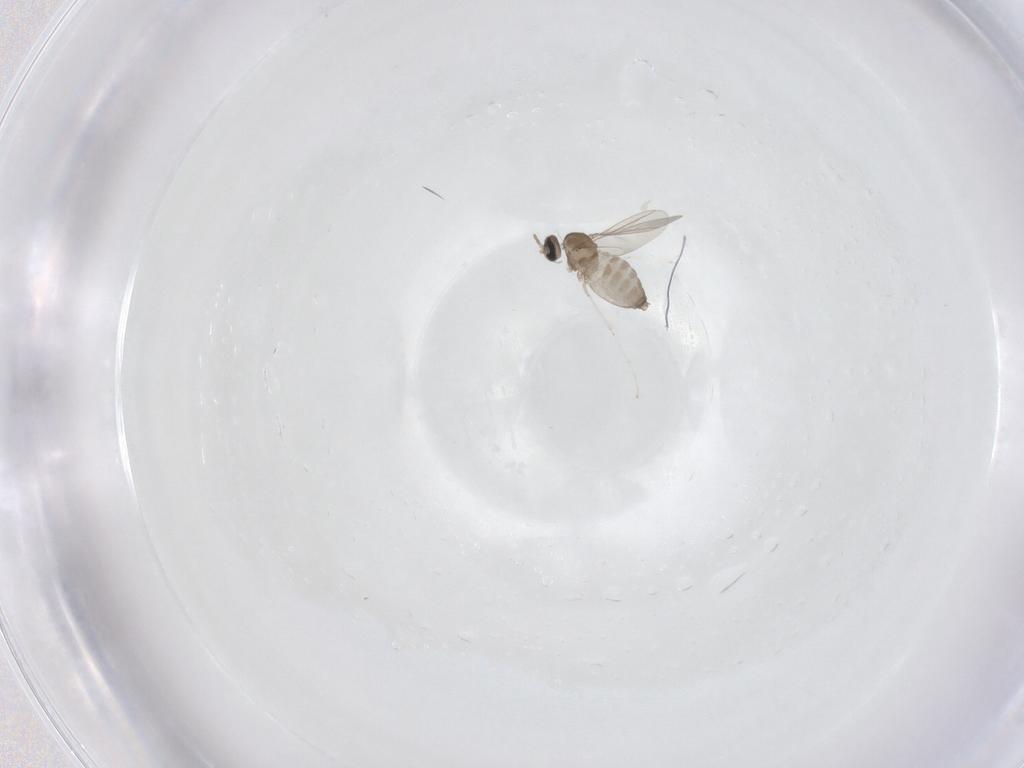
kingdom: Animalia
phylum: Arthropoda
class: Insecta
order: Diptera
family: Cecidomyiidae
